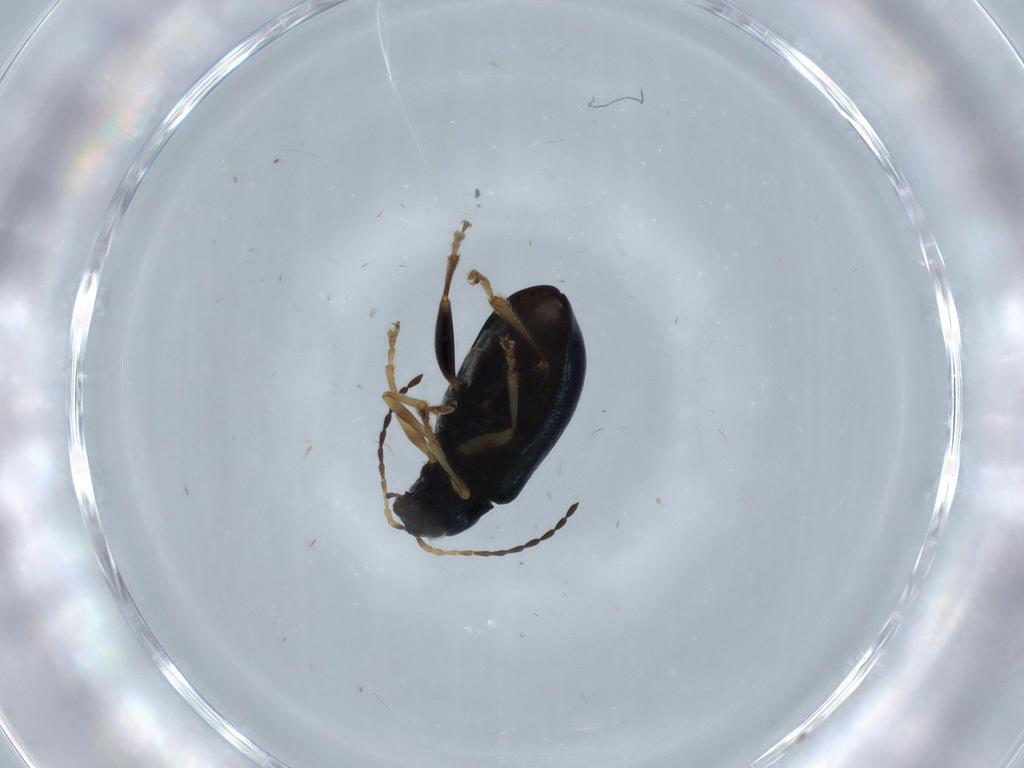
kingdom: Animalia
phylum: Arthropoda
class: Insecta
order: Coleoptera
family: Chrysomelidae
